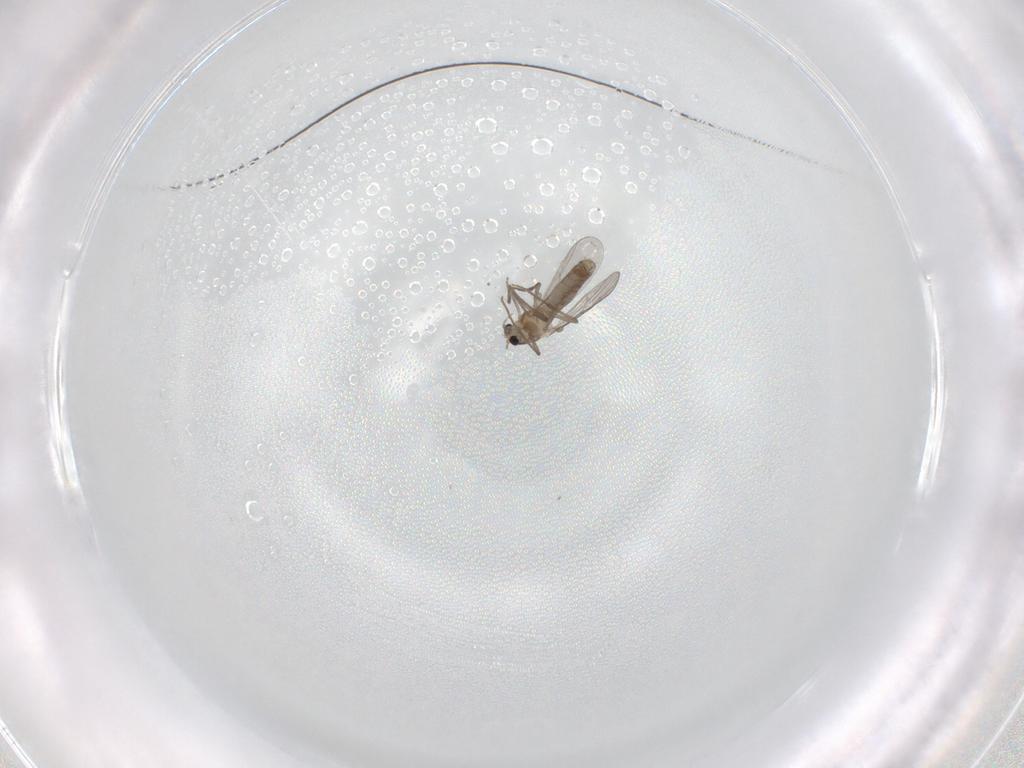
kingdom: Animalia
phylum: Arthropoda
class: Insecta
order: Diptera
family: Chironomidae
